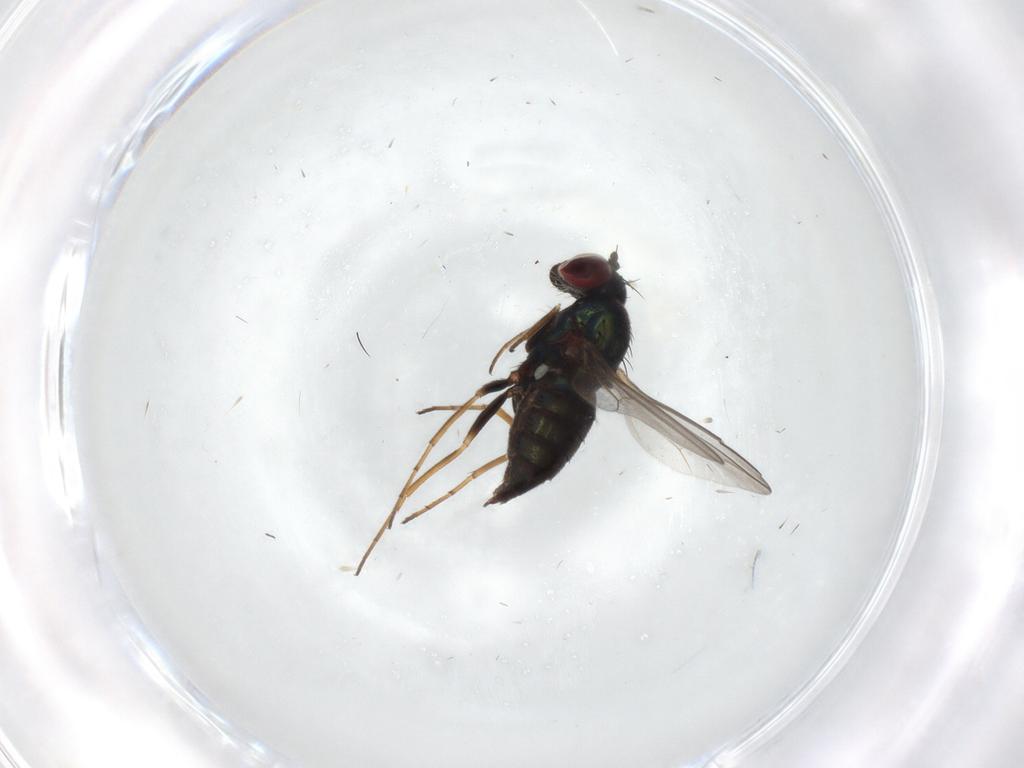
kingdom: Animalia
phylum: Arthropoda
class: Insecta
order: Diptera
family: Dolichopodidae
